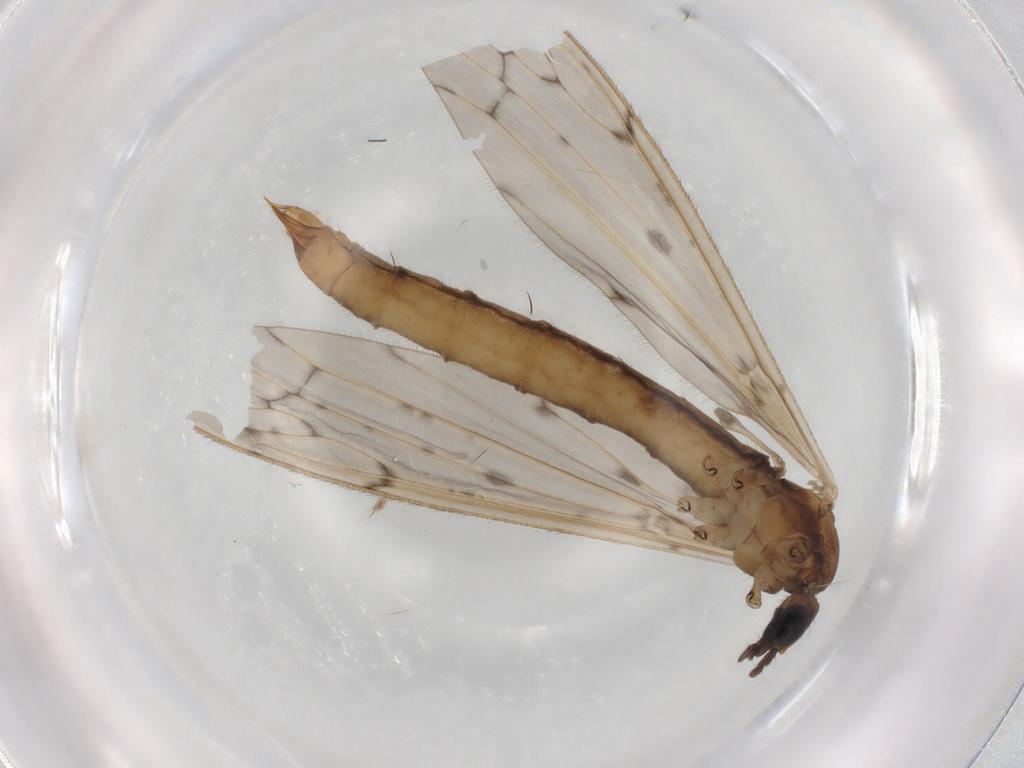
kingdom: Animalia
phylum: Arthropoda
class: Insecta
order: Diptera
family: Limoniidae
